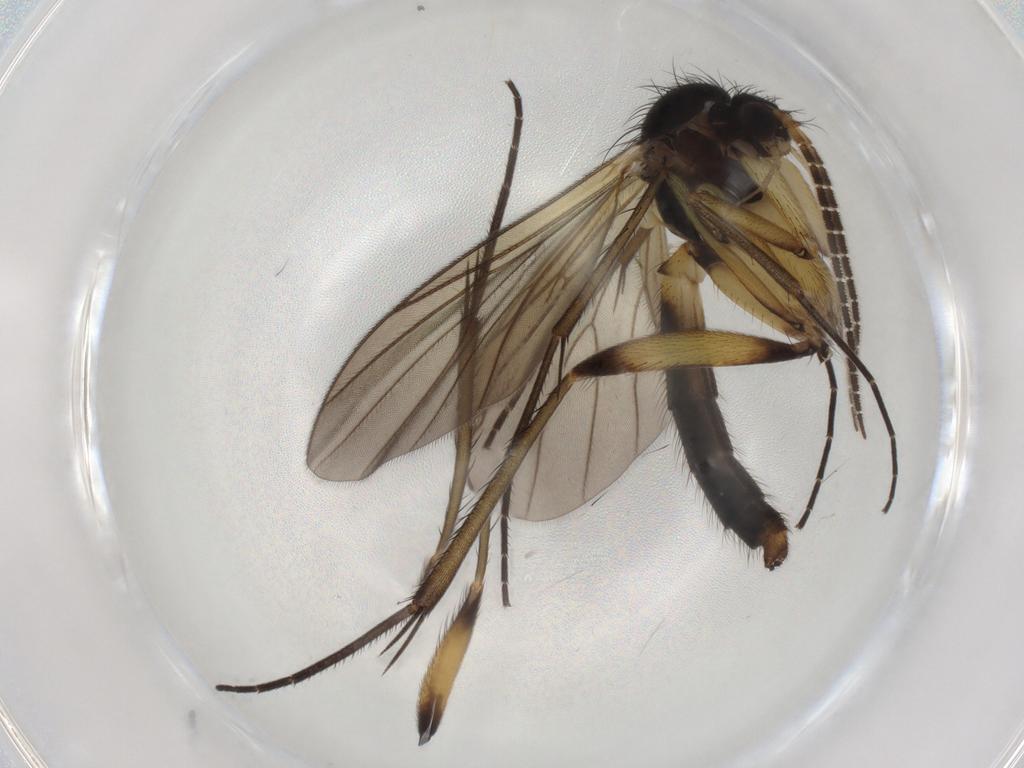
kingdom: Animalia
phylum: Arthropoda
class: Insecta
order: Diptera
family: Mycetophilidae
